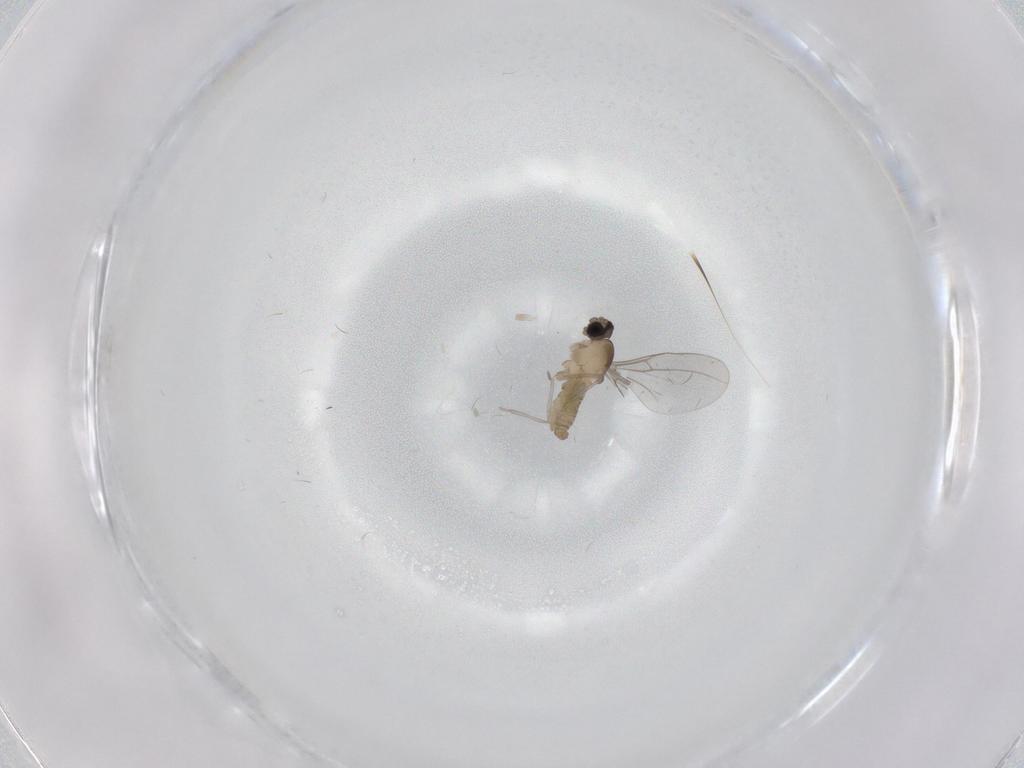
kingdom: Animalia
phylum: Arthropoda
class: Insecta
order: Diptera
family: Cecidomyiidae
